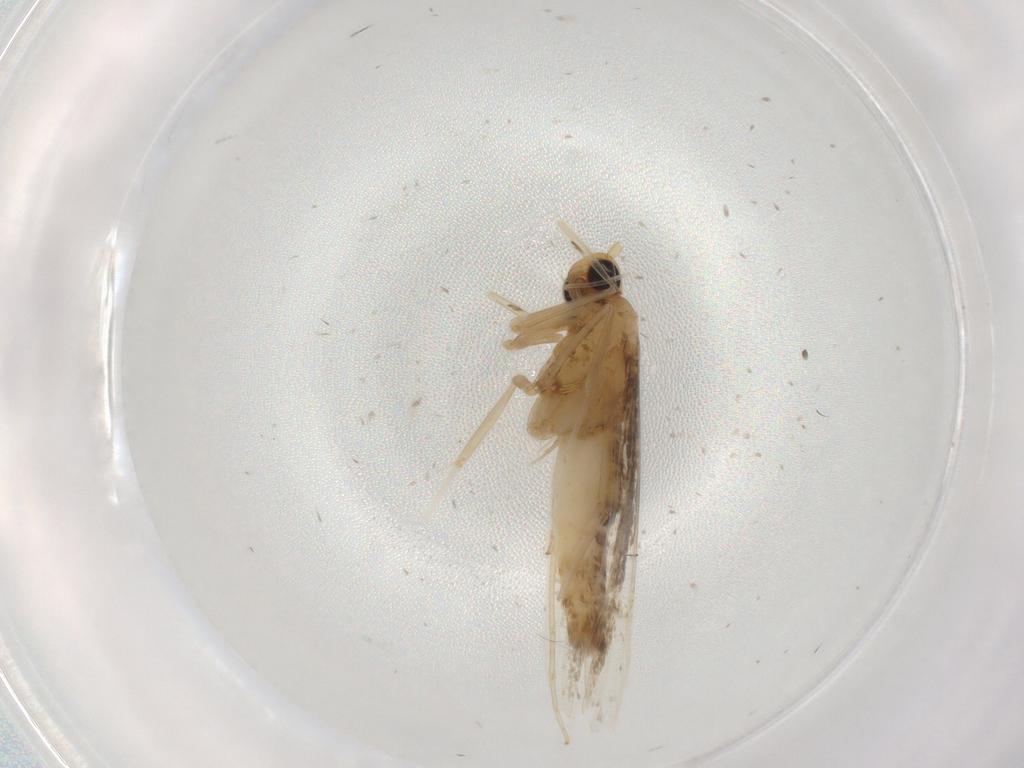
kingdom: Animalia
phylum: Arthropoda
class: Insecta
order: Lepidoptera
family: Gracillariidae
